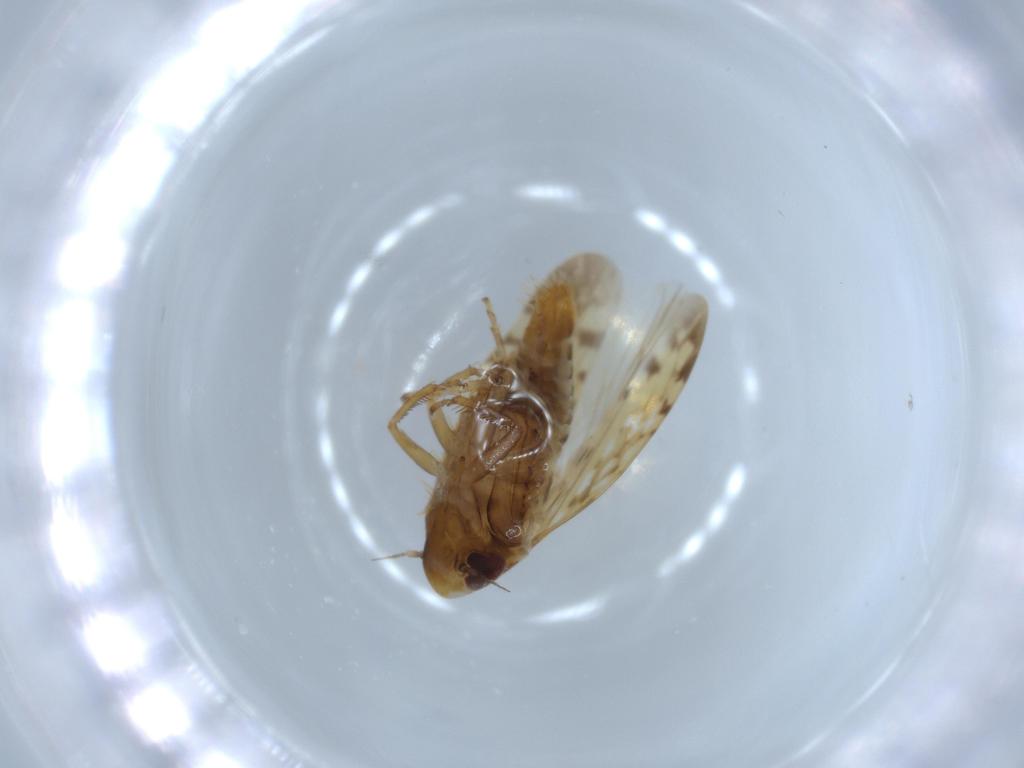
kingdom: Animalia
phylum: Arthropoda
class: Insecta
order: Hemiptera
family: Cicadellidae
